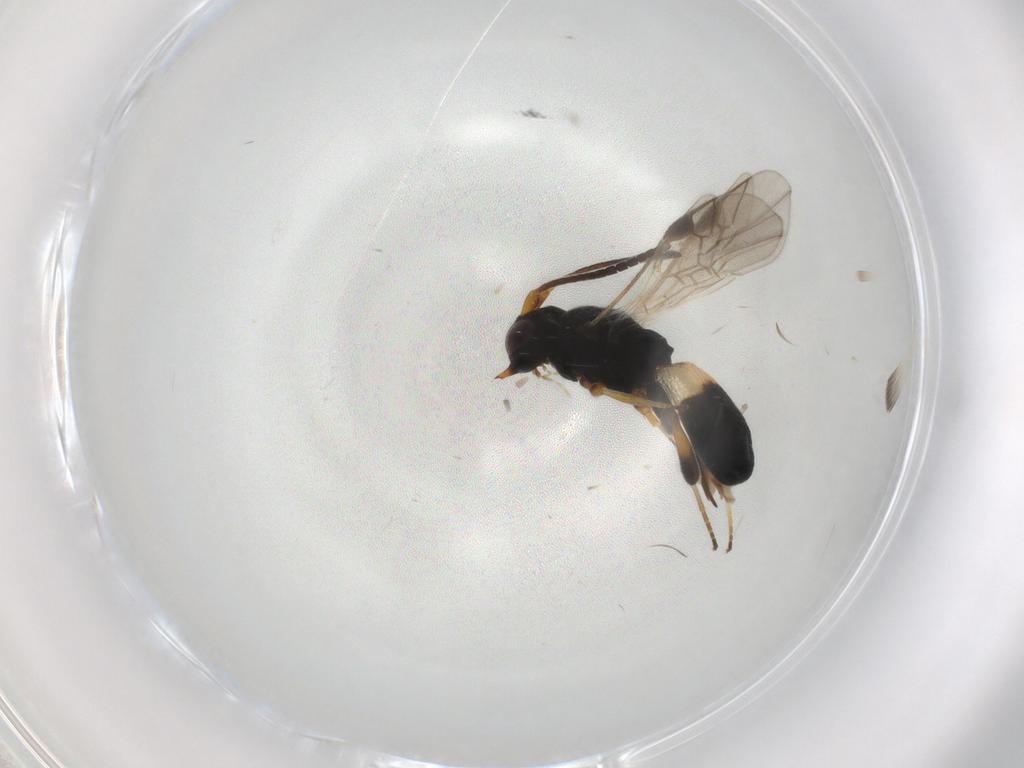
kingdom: Animalia
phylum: Arthropoda
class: Insecta
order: Hymenoptera
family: Braconidae
